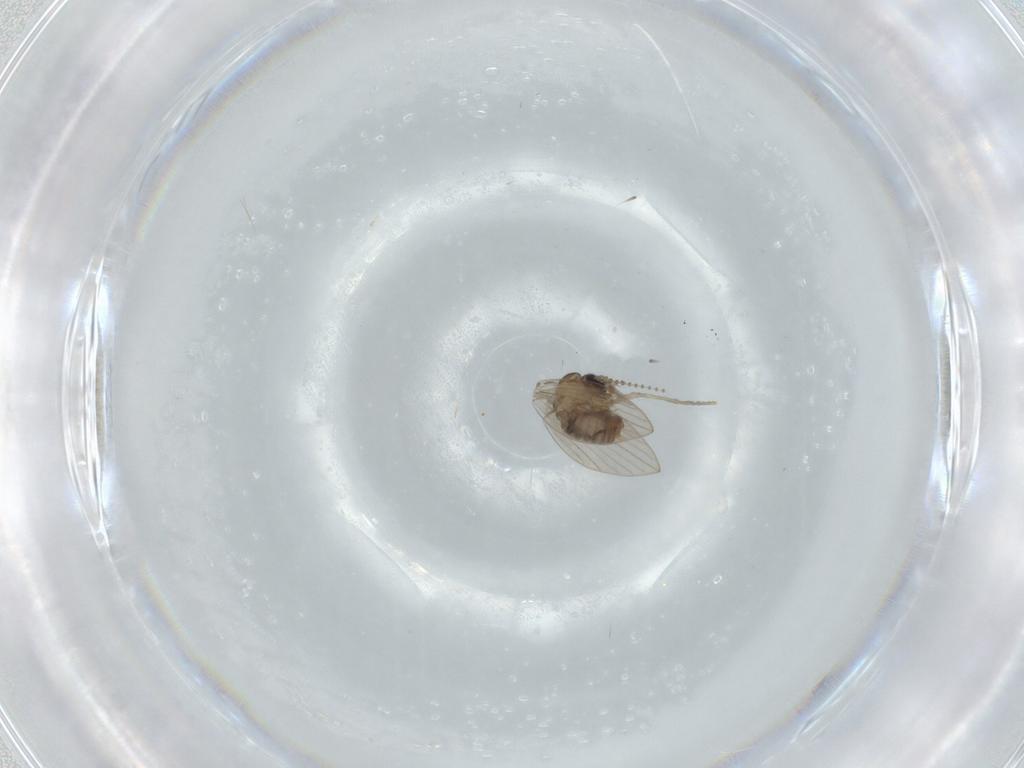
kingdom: Animalia
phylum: Arthropoda
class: Insecta
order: Diptera
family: Psychodidae
